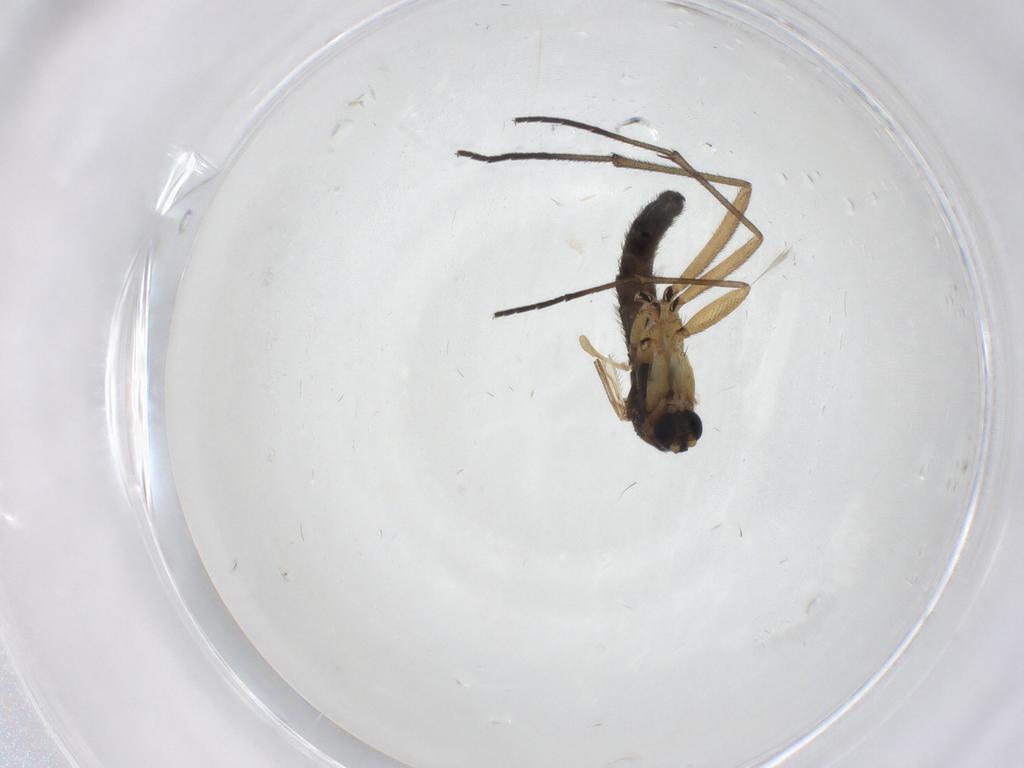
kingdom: Animalia
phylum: Arthropoda
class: Insecta
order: Diptera
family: Sciaridae
